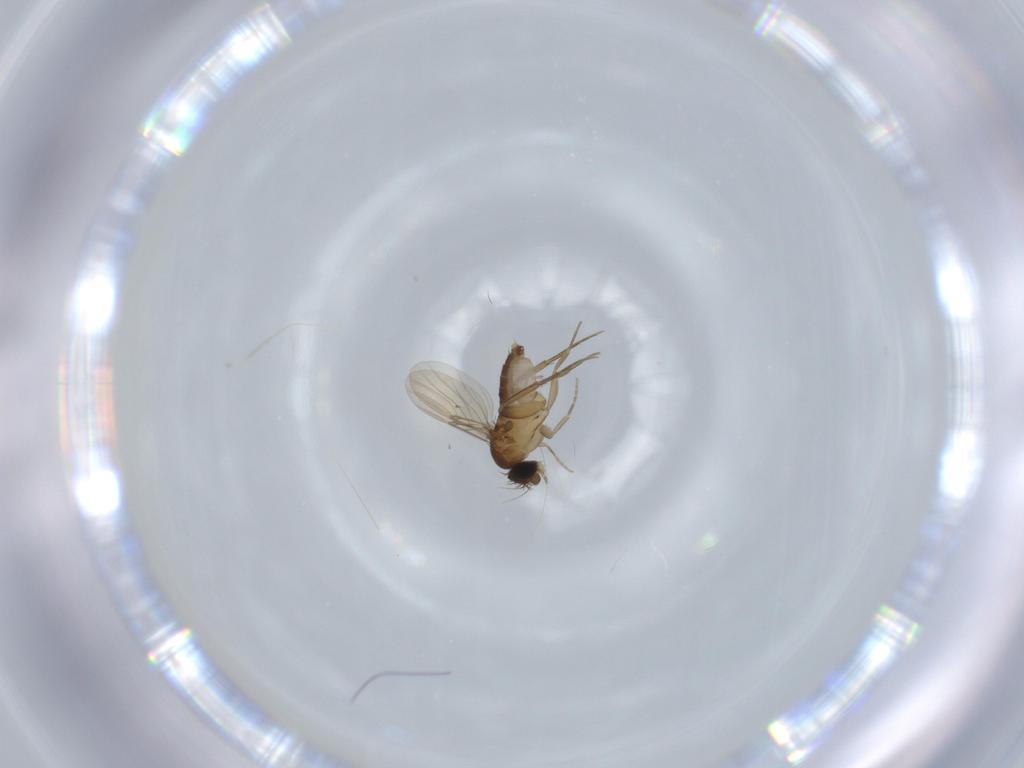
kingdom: Animalia
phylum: Arthropoda
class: Insecta
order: Diptera
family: Phoridae
